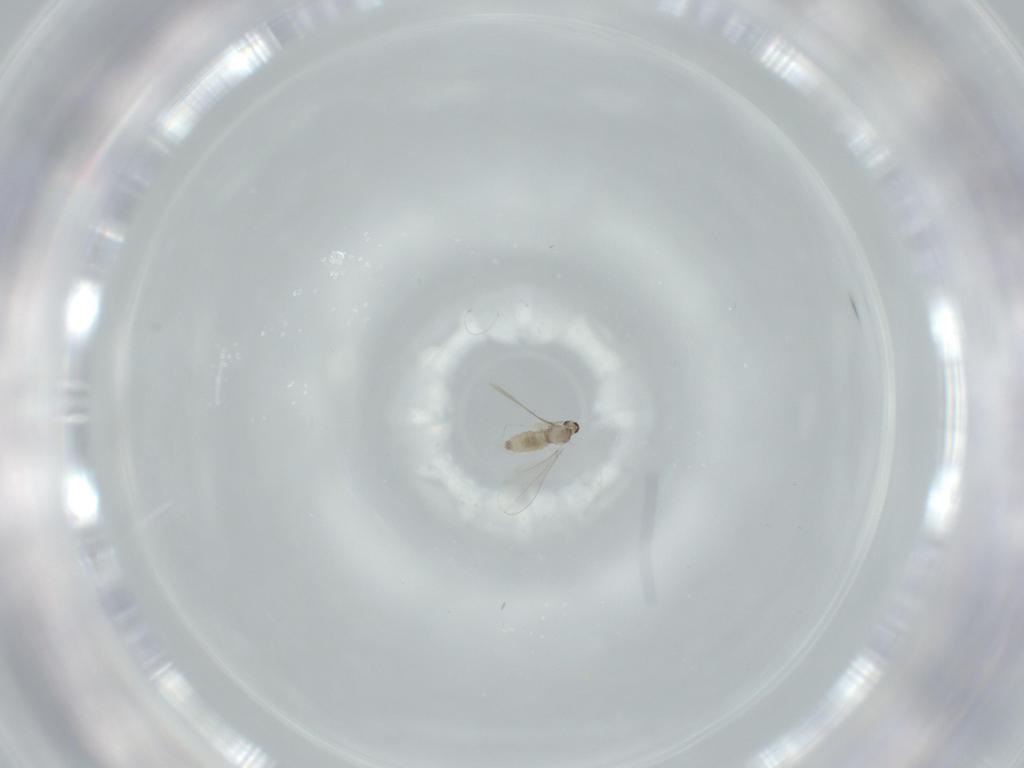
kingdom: Animalia
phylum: Arthropoda
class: Insecta
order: Diptera
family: Cecidomyiidae
